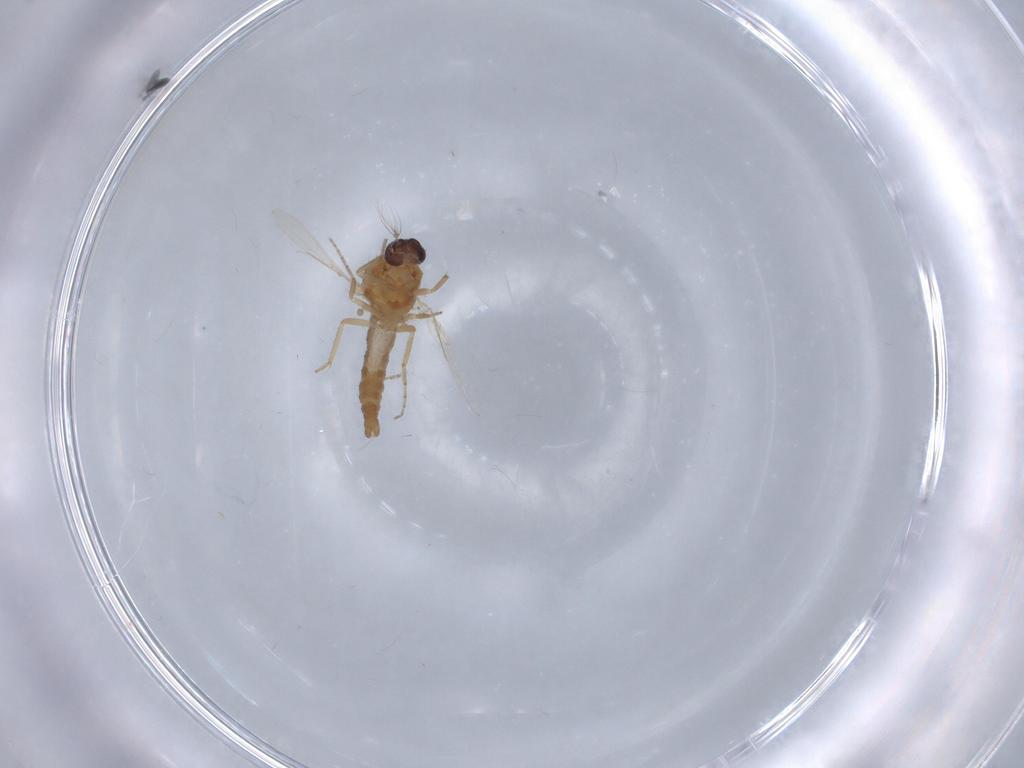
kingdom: Animalia
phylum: Arthropoda
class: Insecta
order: Diptera
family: Ceratopogonidae
